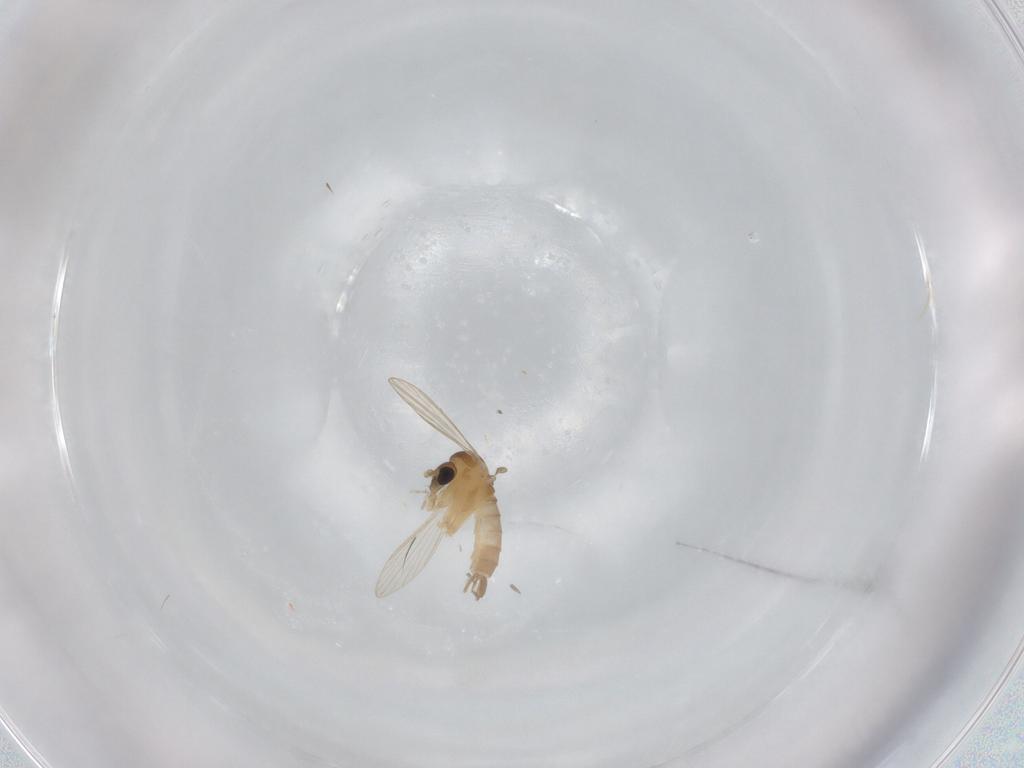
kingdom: Animalia
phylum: Arthropoda
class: Insecta
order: Diptera
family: Psychodidae
